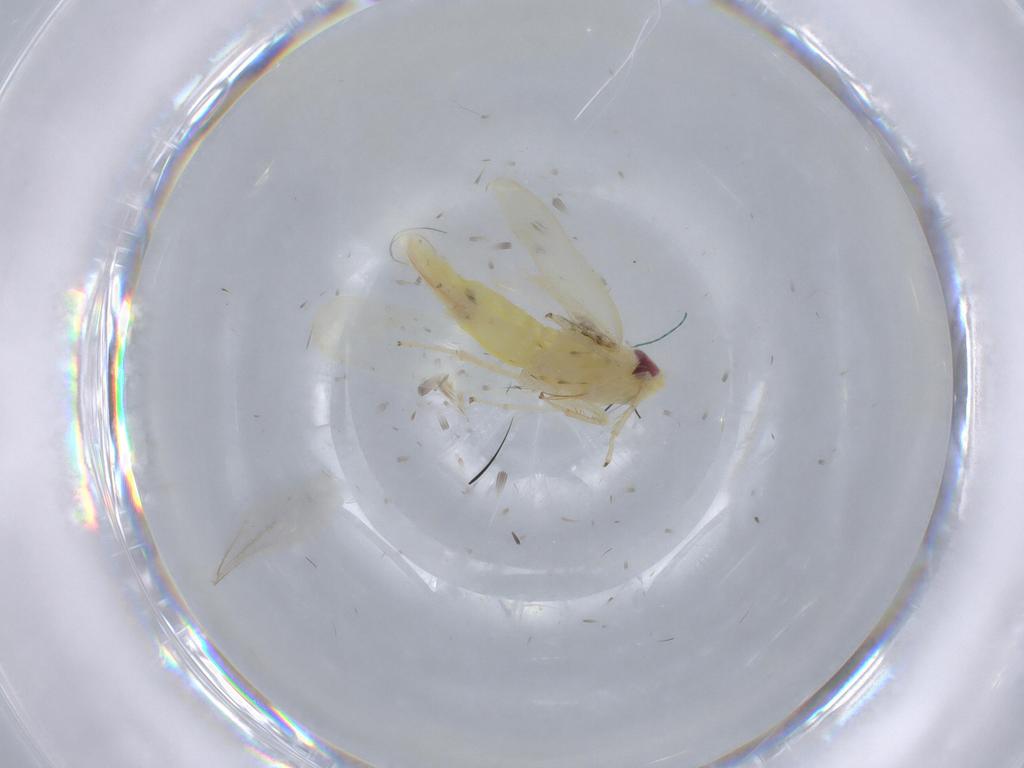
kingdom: Animalia
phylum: Arthropoda
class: Insecta
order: Hemiptera
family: Cicadellidae
